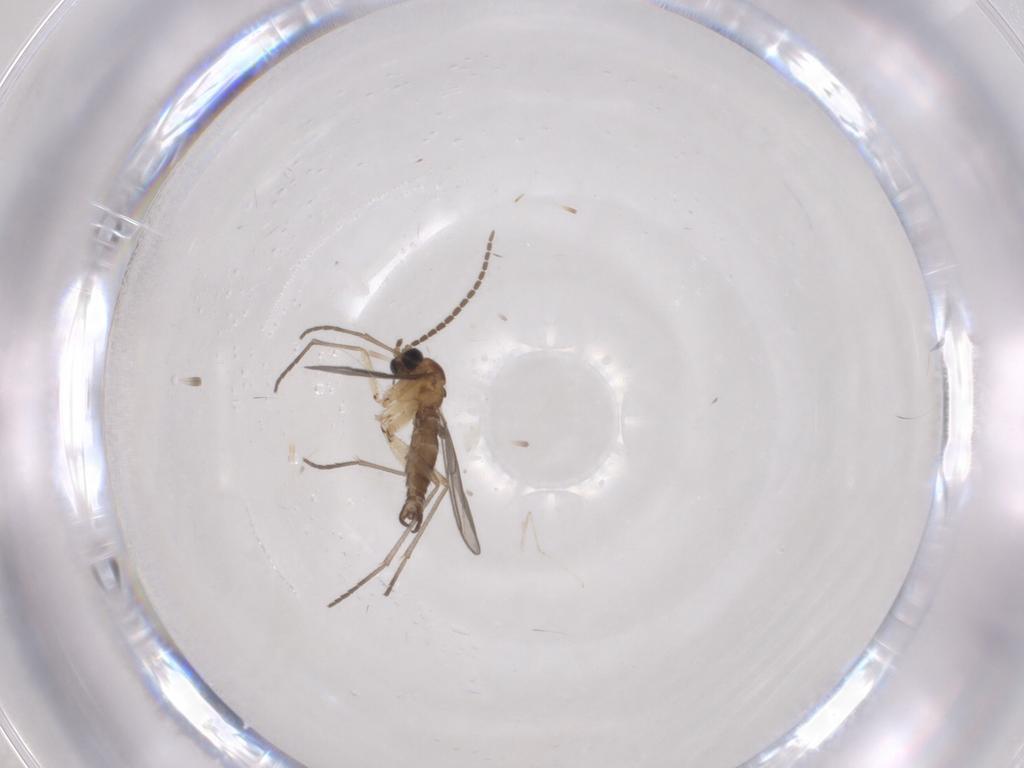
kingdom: Animalia
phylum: Arthropoda
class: Insecta
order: Diptera
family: Sciaridae
